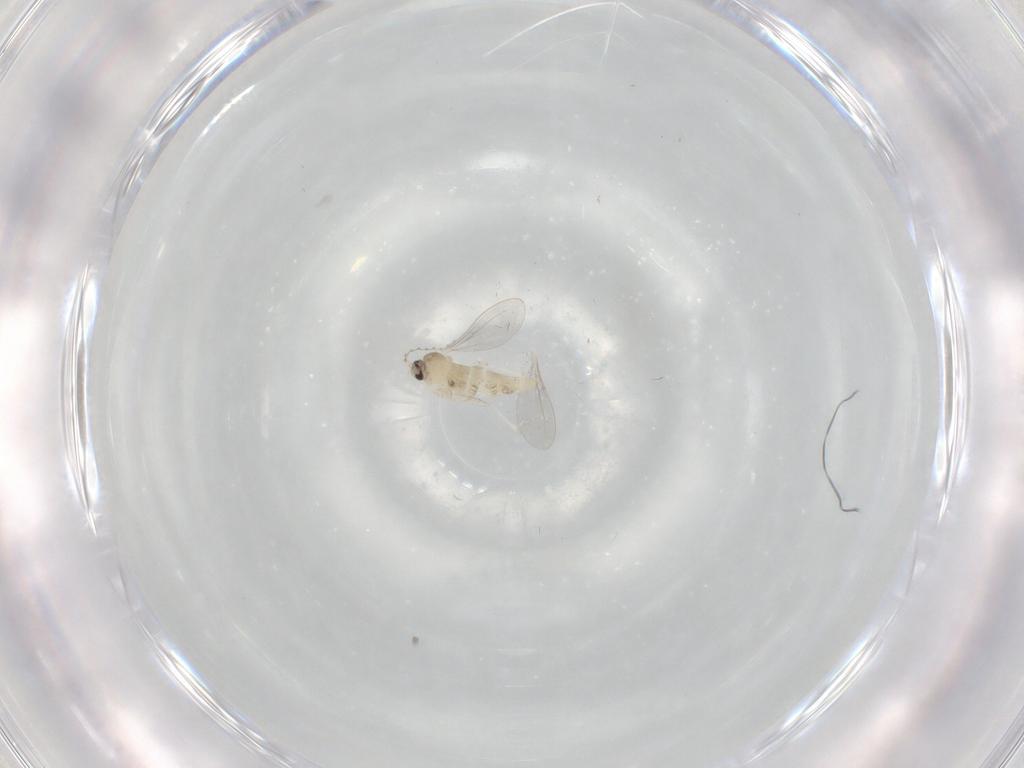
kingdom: Animalia
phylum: Arthropoda
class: Insecta
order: Diptera
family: Cecidomyiidae
